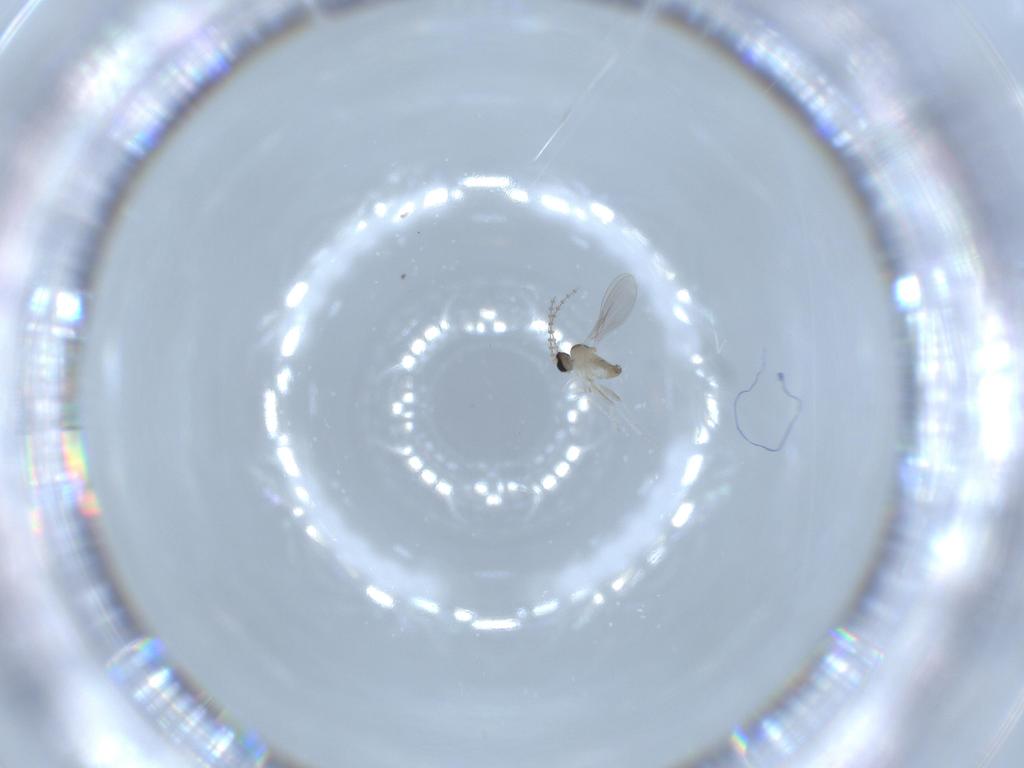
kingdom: Animalia
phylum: Arthropoda
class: Insecta
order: Diptera
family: Cecidomyiidae
